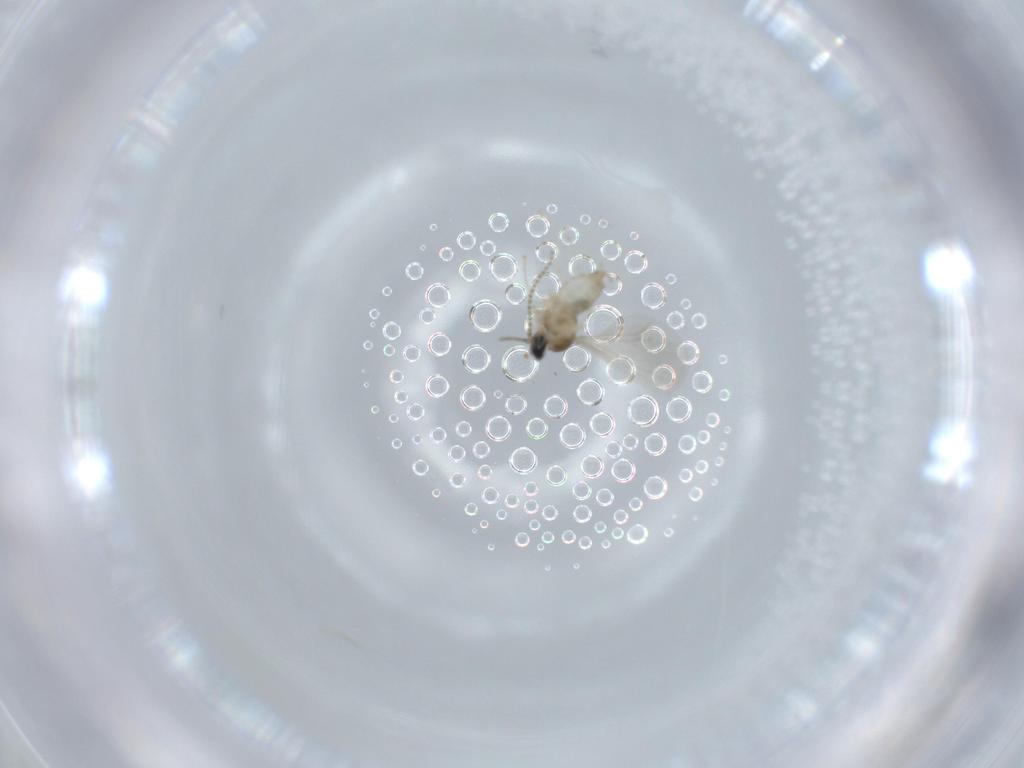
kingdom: Animalia
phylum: Arthropoda
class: Insecta
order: Diptera
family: Cecidomyiidae
